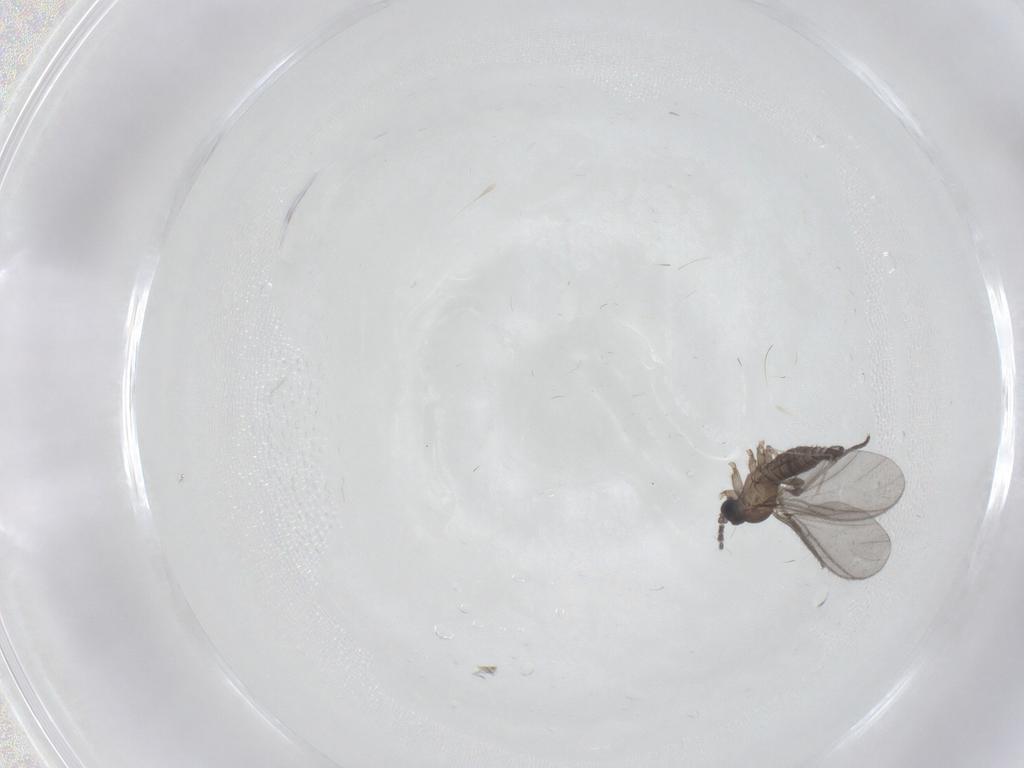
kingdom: Animalia
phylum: Arthropoda
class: Insecta
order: Diptera
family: Sciaridae
